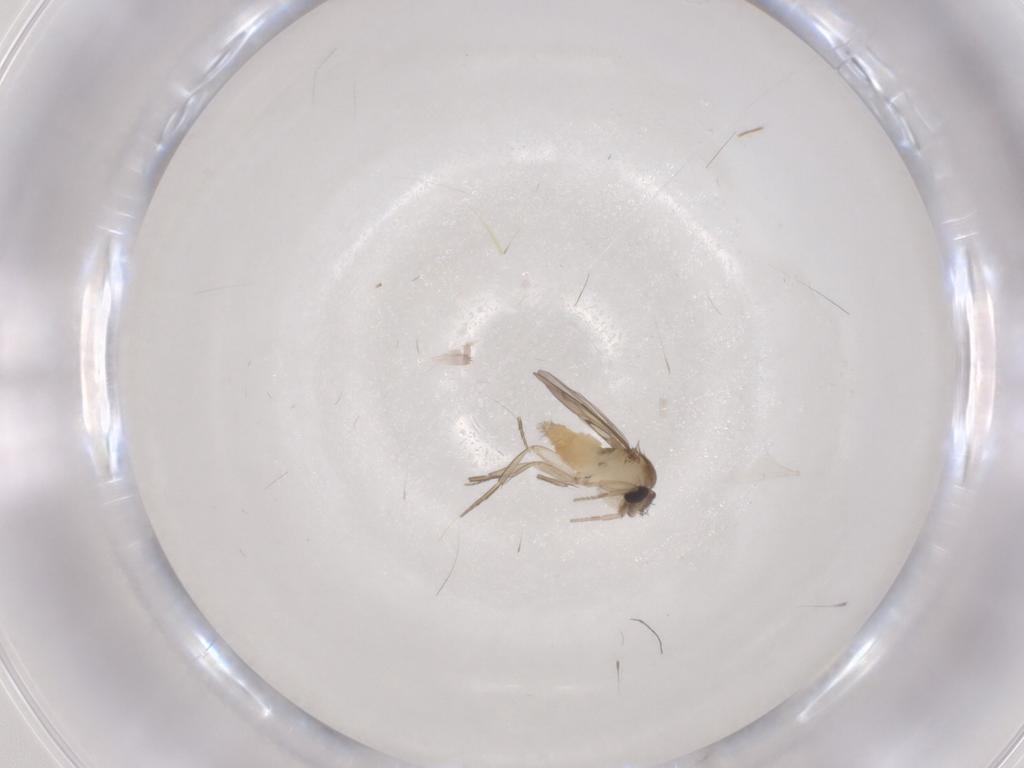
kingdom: Animalia
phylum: Arthropoda
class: Insecta
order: Diptera
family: Cecidomyiidae
